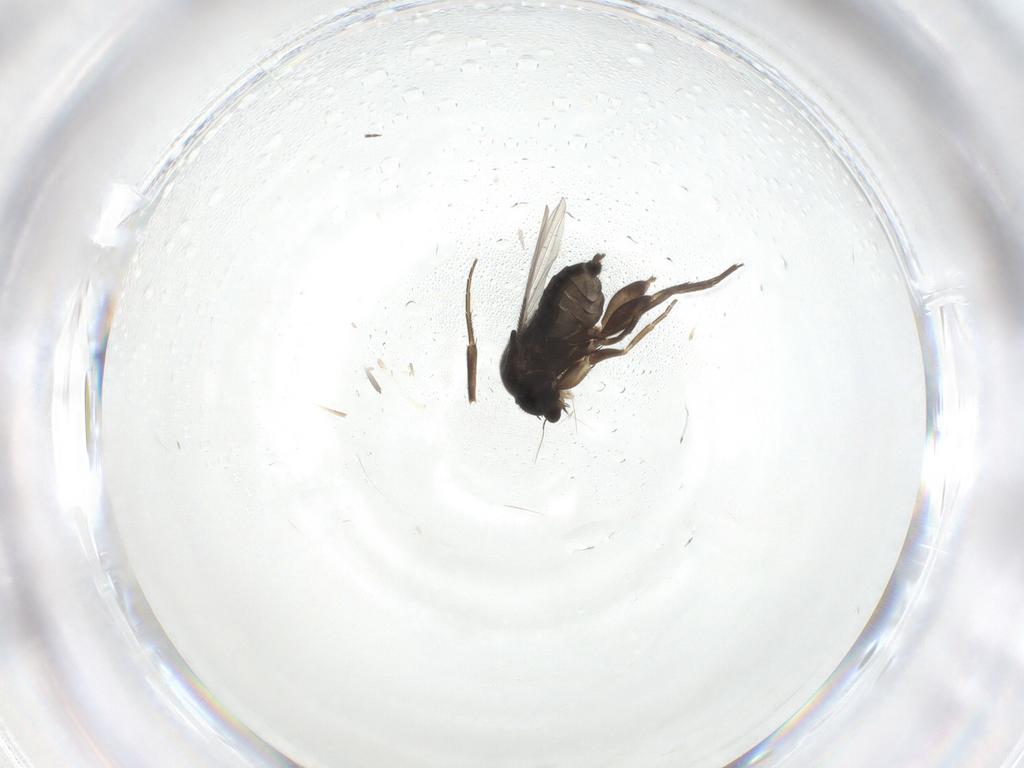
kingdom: Animalia
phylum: Arthropoda
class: Insecta
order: Diptera
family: Phoridae
